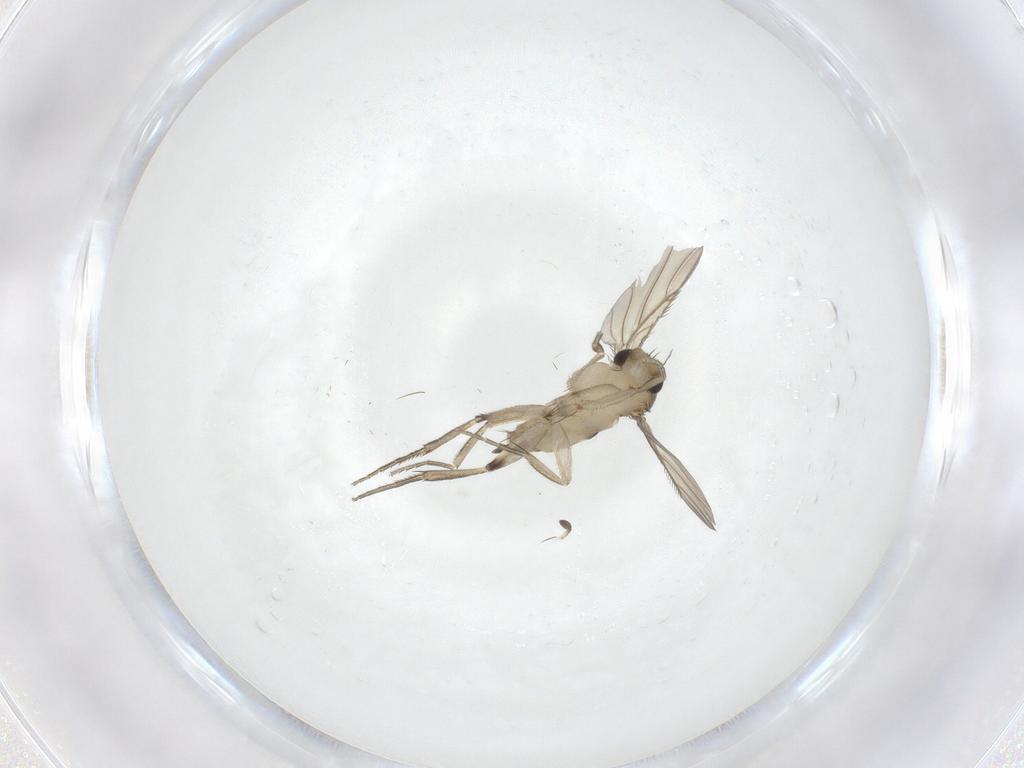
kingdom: Animalia
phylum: Arthropoda
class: Insecta
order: Diptera
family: Phoridae
